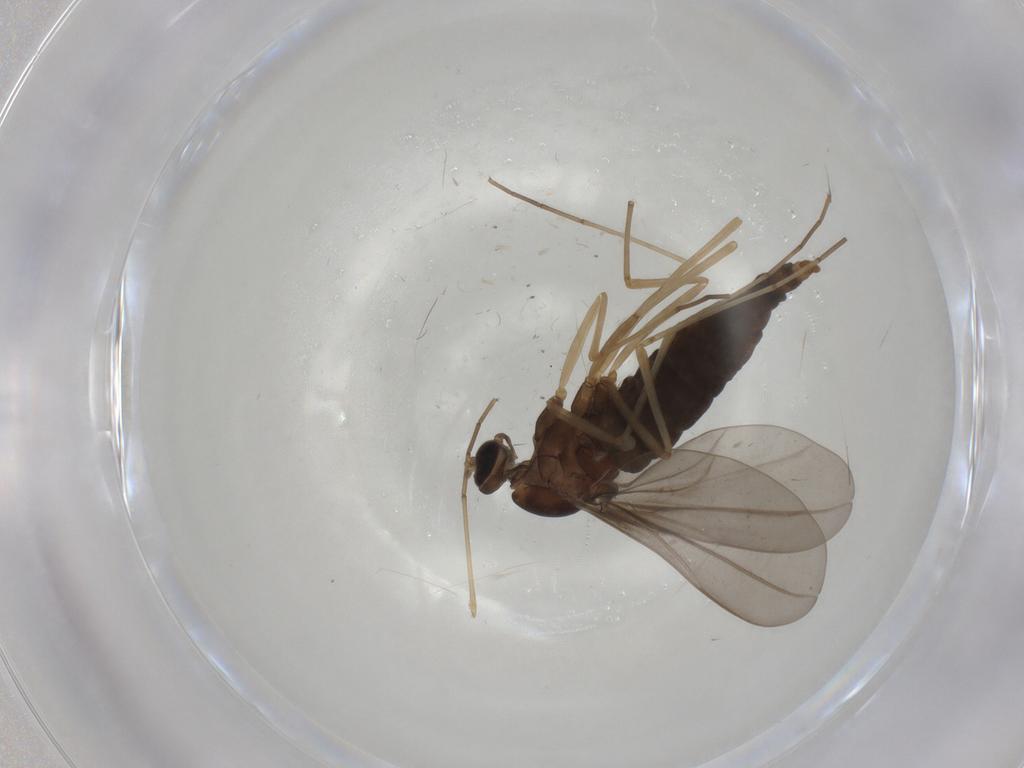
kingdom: Animalia
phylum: Arthropoda
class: Insecta
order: Diptera
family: Cecidomyiidae
